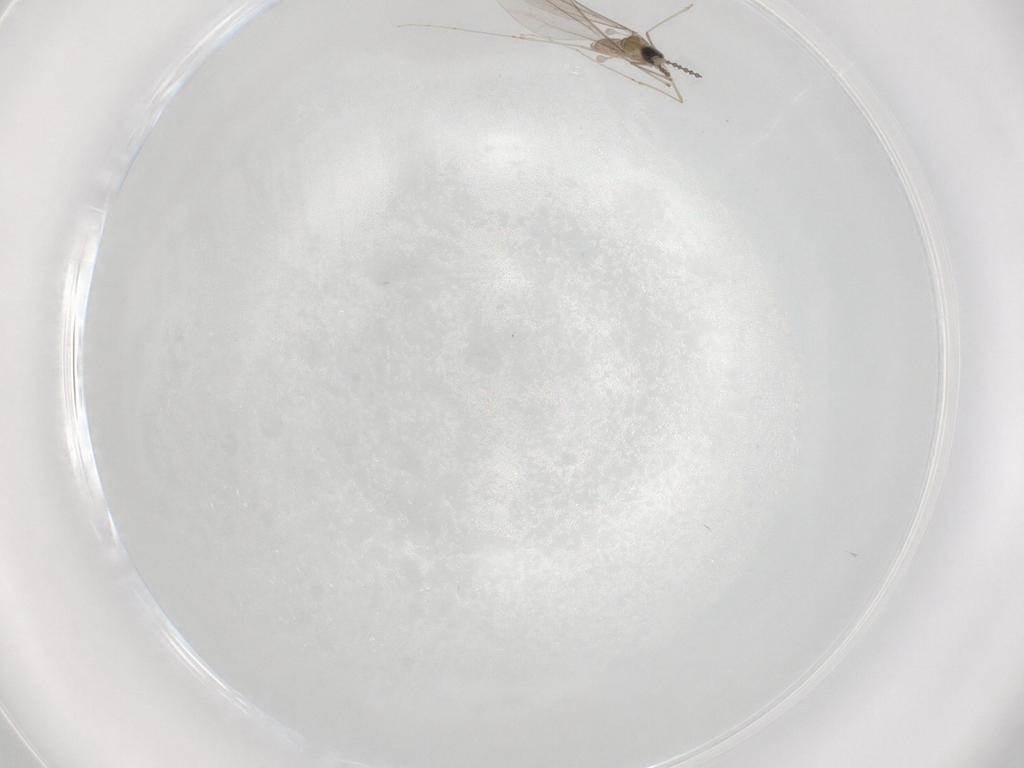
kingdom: Animalia
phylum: Arthropoda
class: Insecta
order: Diptera
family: Cecidomyiidae
